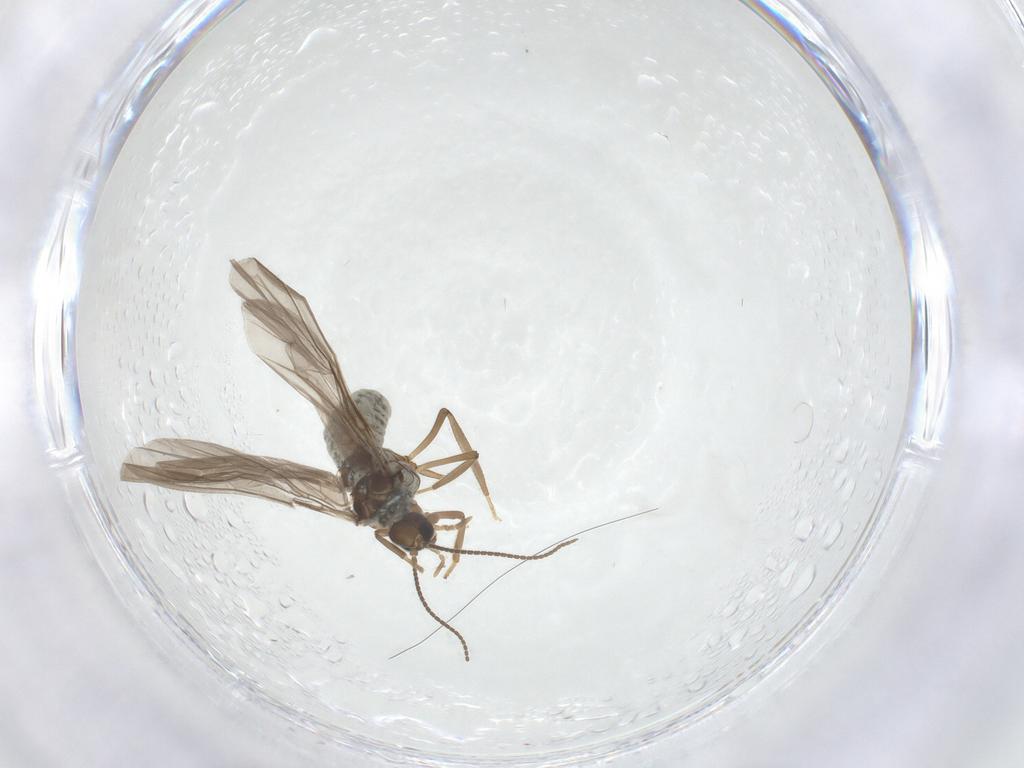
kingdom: Animalia
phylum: Arthropoda
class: Insecta
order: Neuroptera
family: Coniopterygidae
